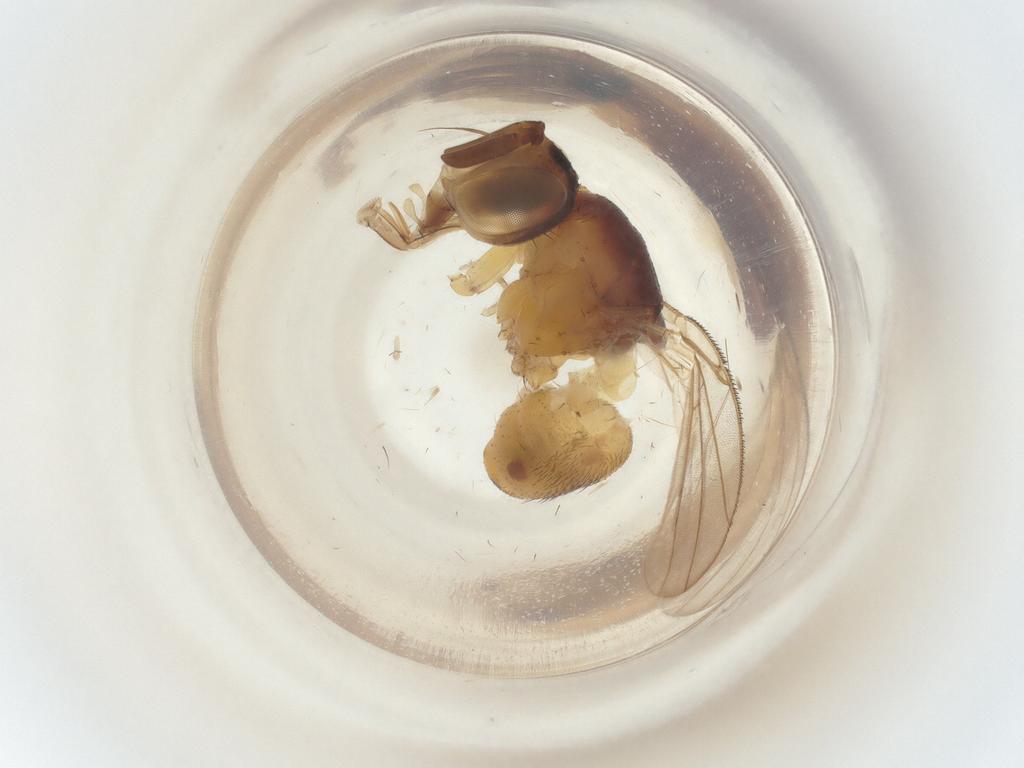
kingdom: Animalia
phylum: Arthropoda
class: Insecta
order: Diptera
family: Muscidae
